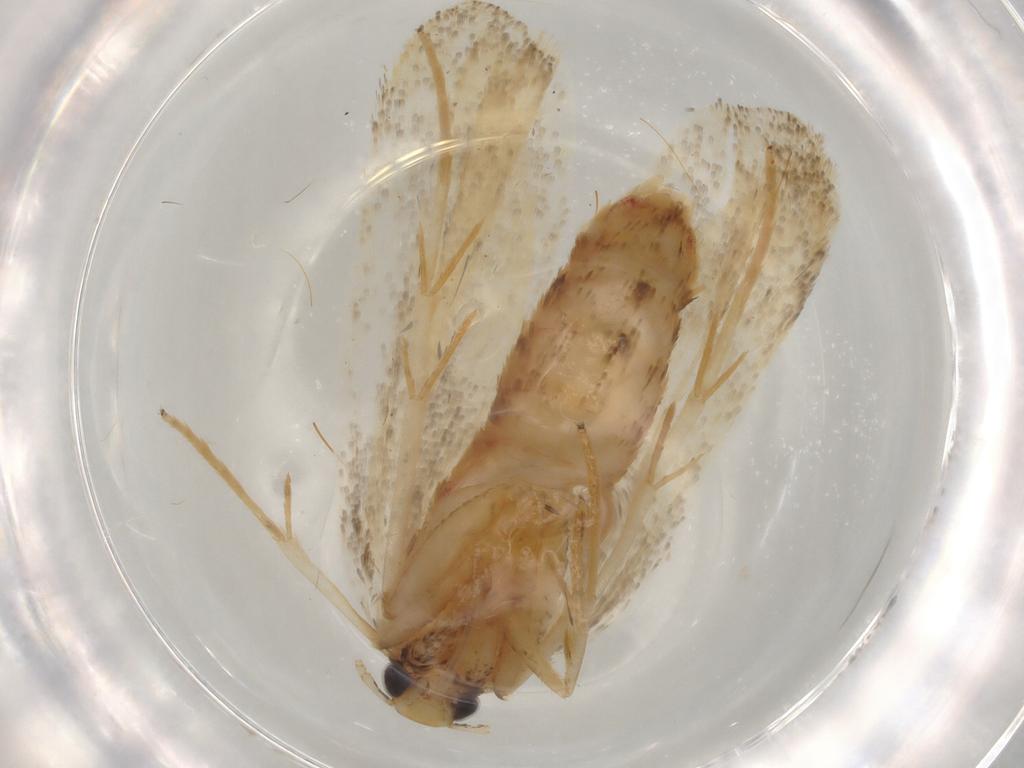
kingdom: Animalia
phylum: Arthropoda
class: Insecta
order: Lepidoptera
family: Lecithoceridae
